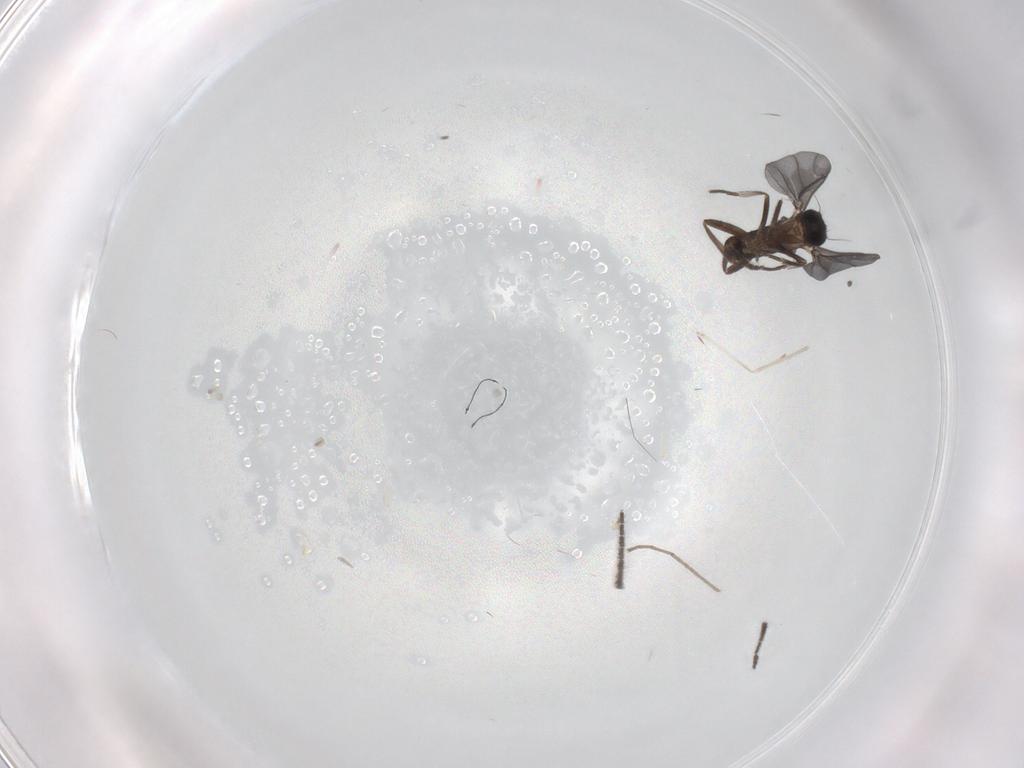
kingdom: Animalia
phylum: Arthropoda
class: Insecta
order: Diptera
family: Phoridae
